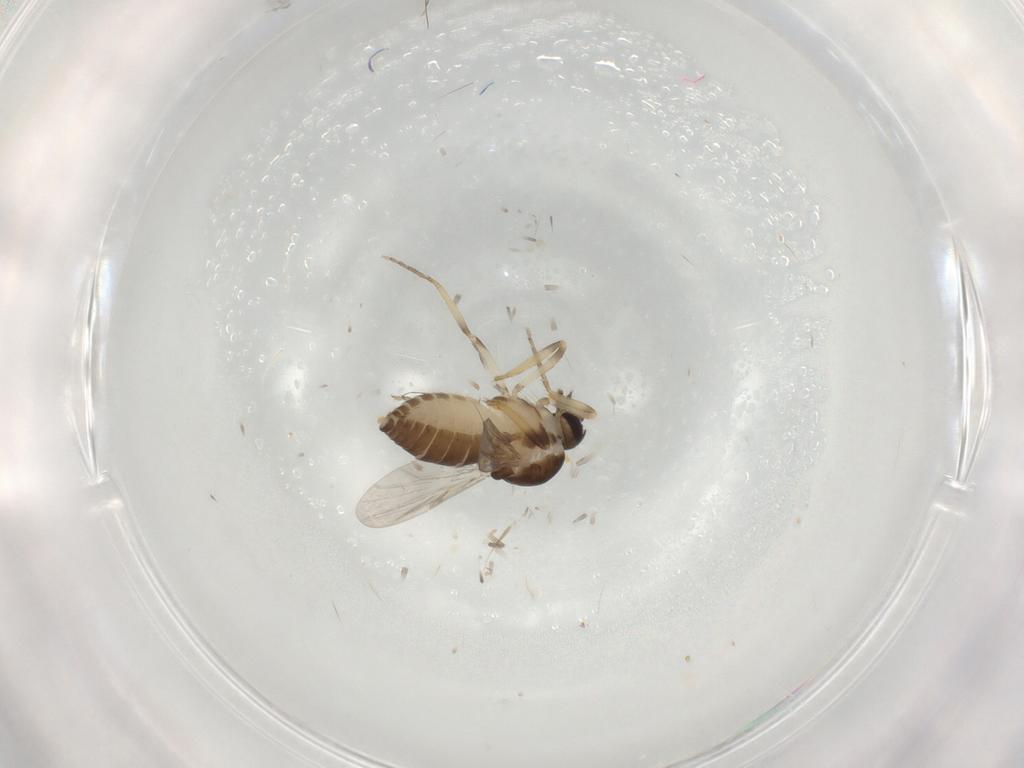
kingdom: Animalia
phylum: Arthropoda
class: Insecta
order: Diptera
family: Ceratopogonidae
